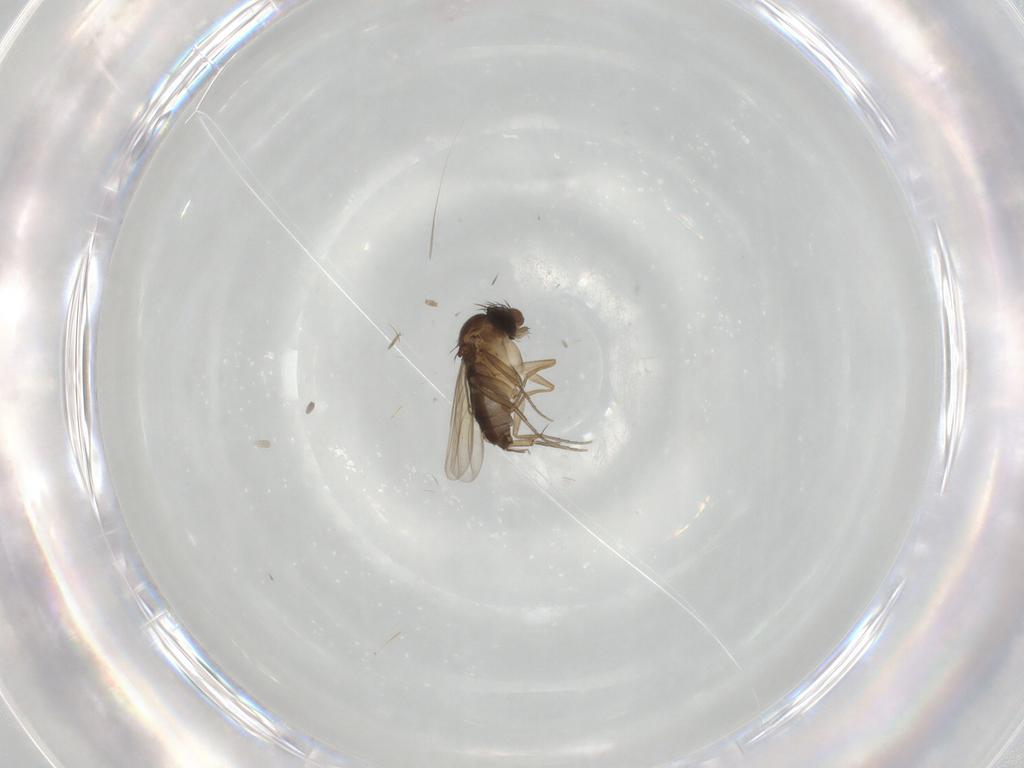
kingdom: Animalia
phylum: Arthropoda
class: Insecta
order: Diptera
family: Phoridae
